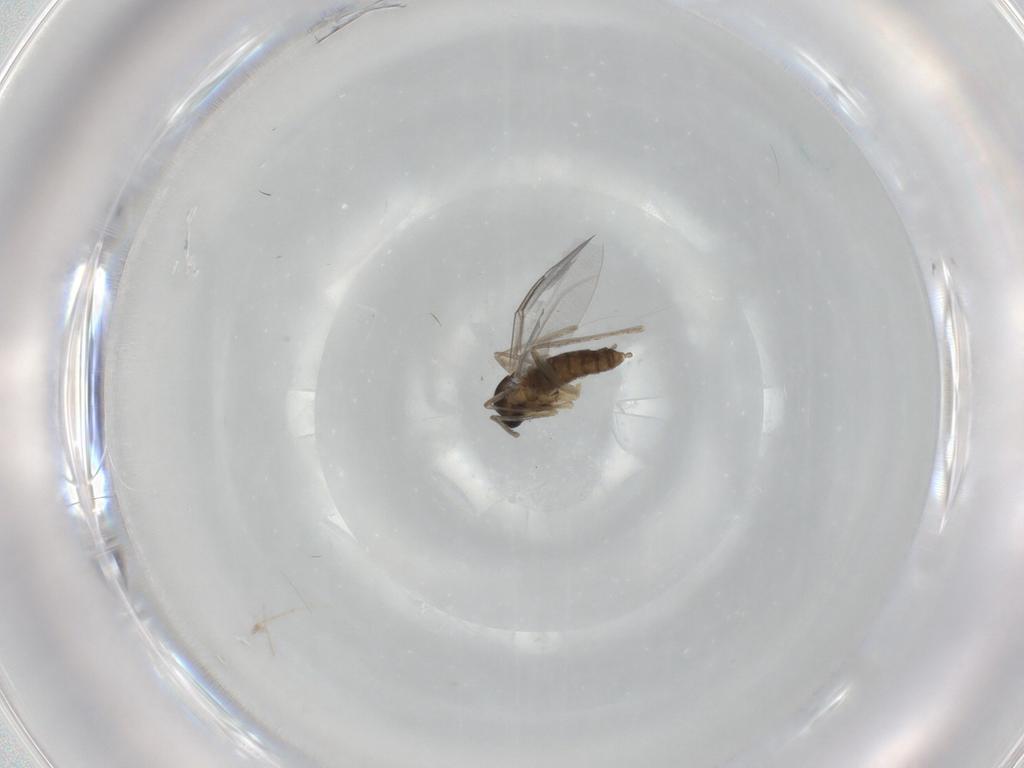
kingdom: Animalia
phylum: Arthropoda
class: Insecta
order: Diptera
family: Cecidomyiidae
